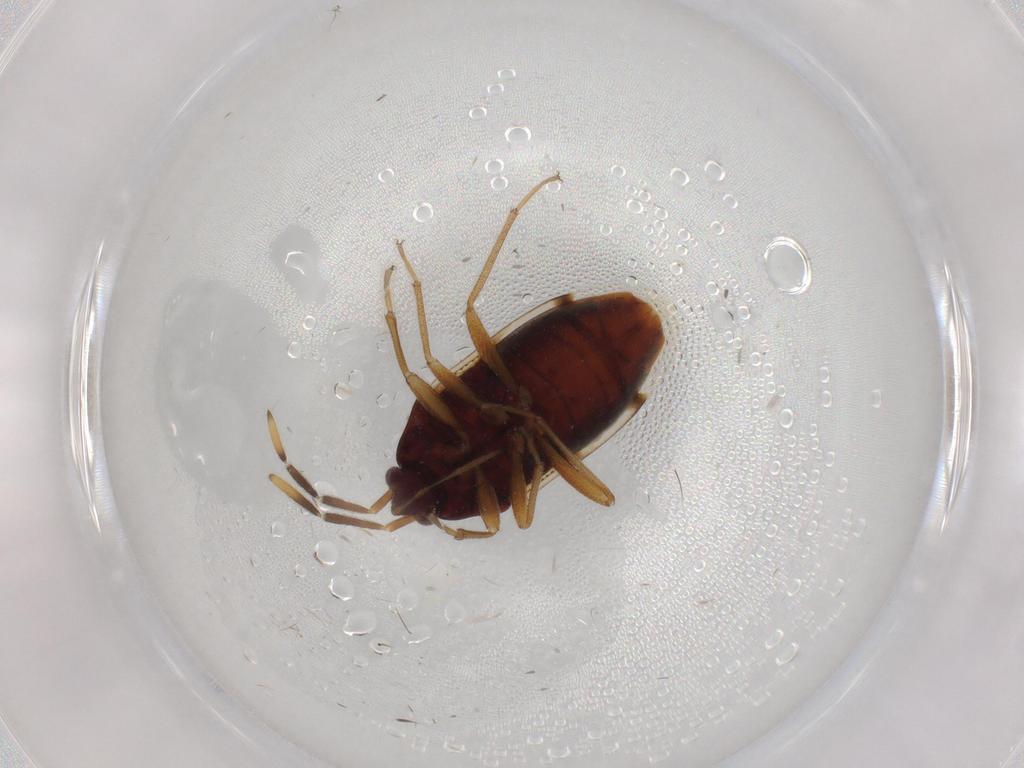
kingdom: Animalia
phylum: Arthropoda
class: Insecta
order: Hemiptera
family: Rhyparochromidae
